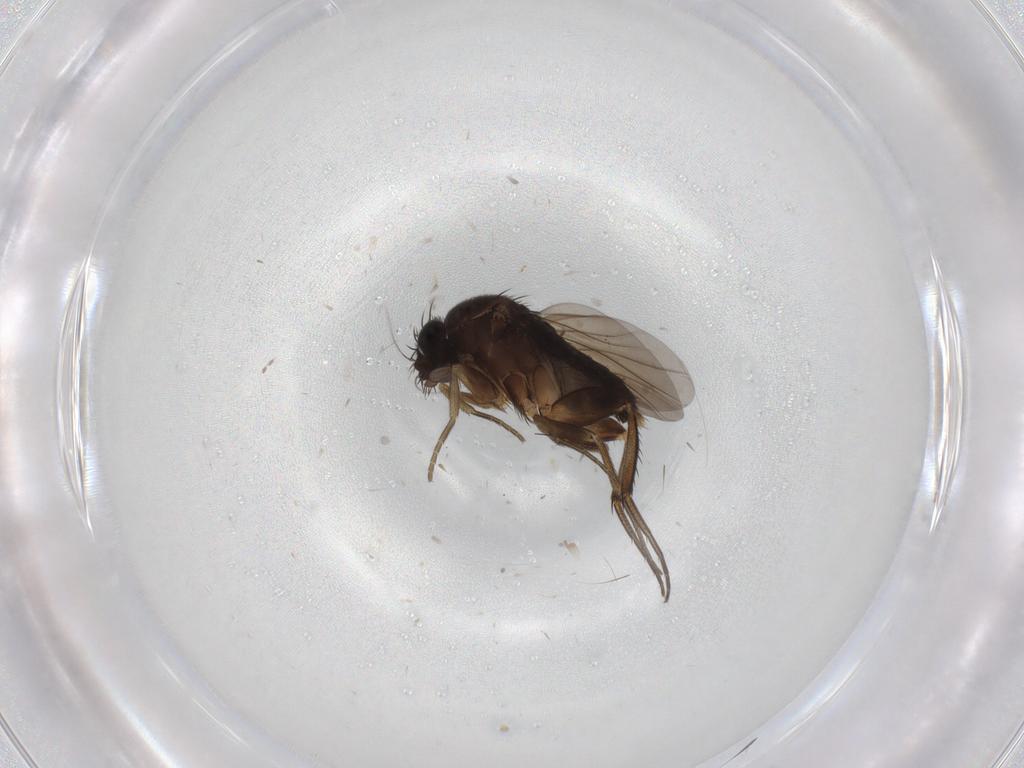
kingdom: Animalia
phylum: Arthropoda
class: Insecta
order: Diptera
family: Phoridae
